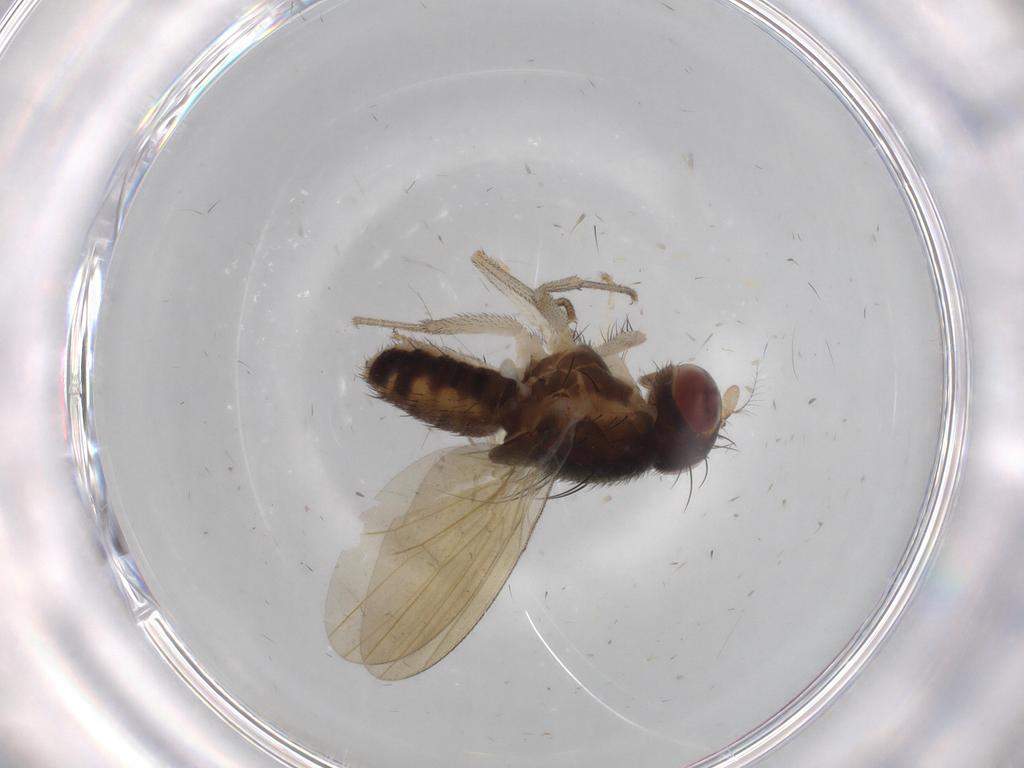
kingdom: Animalia
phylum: Arthropoda
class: Insecta
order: Diptera
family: Cecidomyiidae
